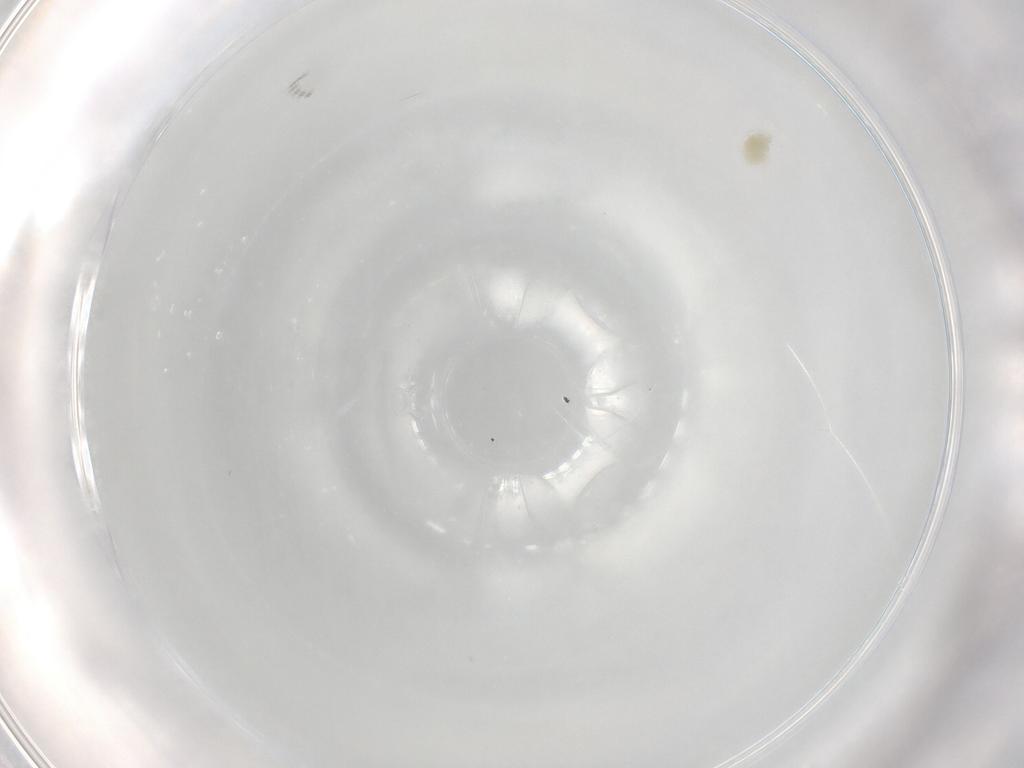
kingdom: Animalia
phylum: Arthropoda
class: Arachnida
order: Trombidiformes
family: Eupodidae
